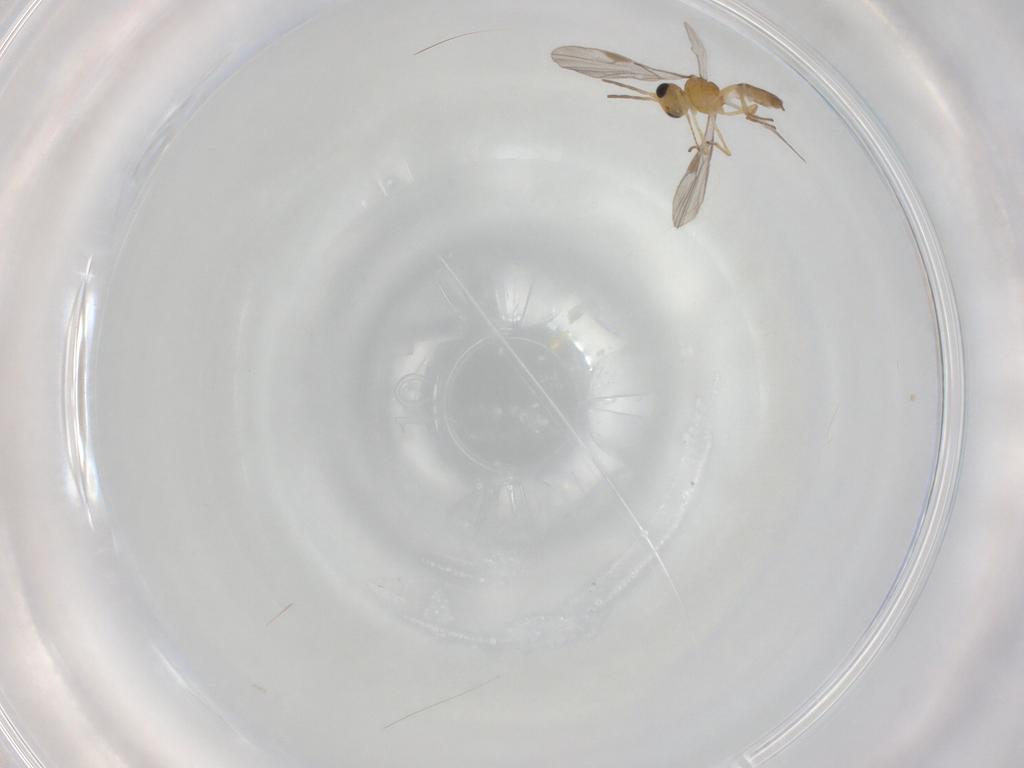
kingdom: Animalia
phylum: Arthropoda
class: Insecta
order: Hymenoptera
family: Braconidae
